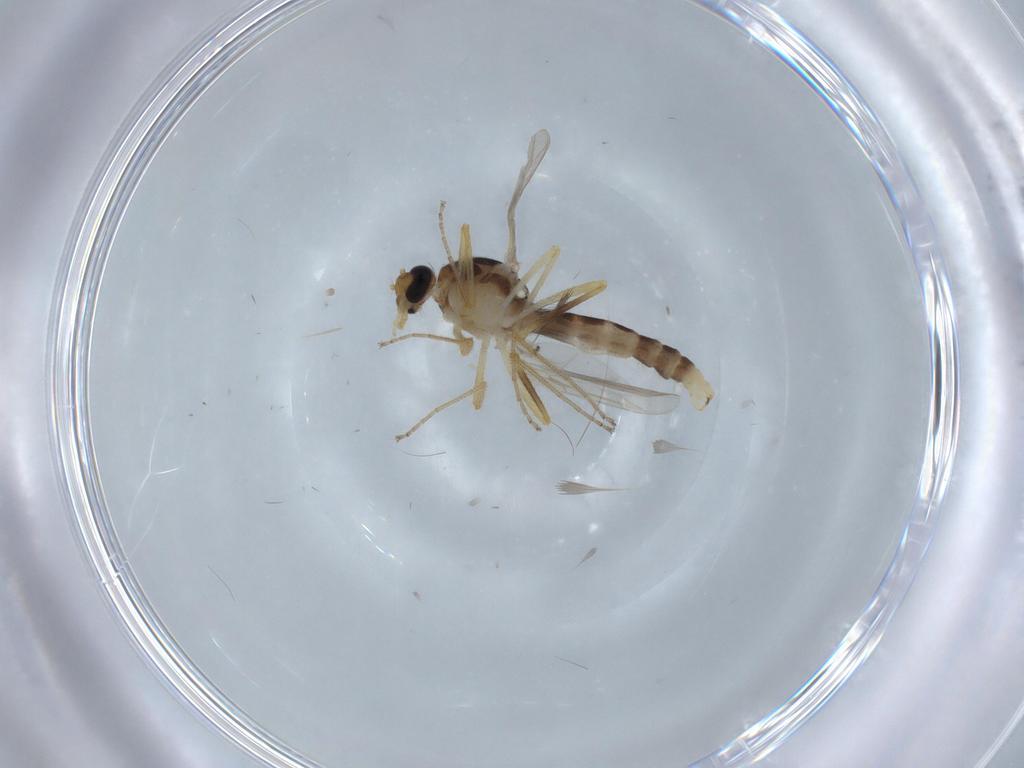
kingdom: Animalia
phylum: Arthropoda
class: Insecta
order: Diptera
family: Ceratopogonidae
